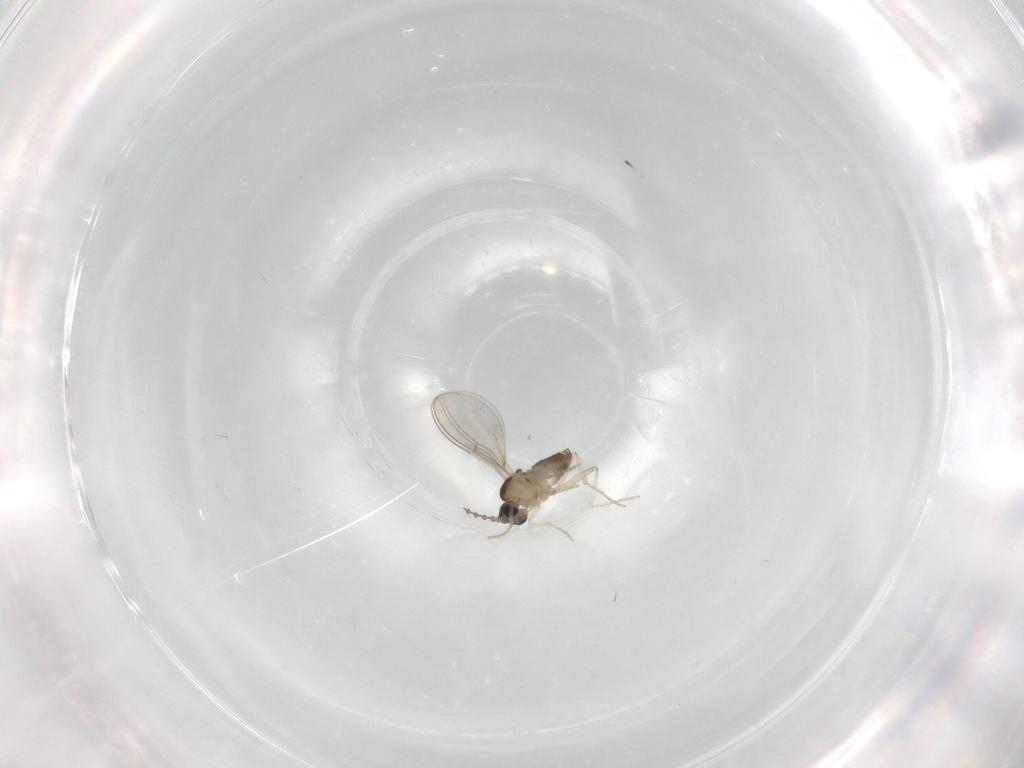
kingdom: Animalia
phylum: Arthropoda
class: Insecta
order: Diptera
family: Cecidomyiidae
